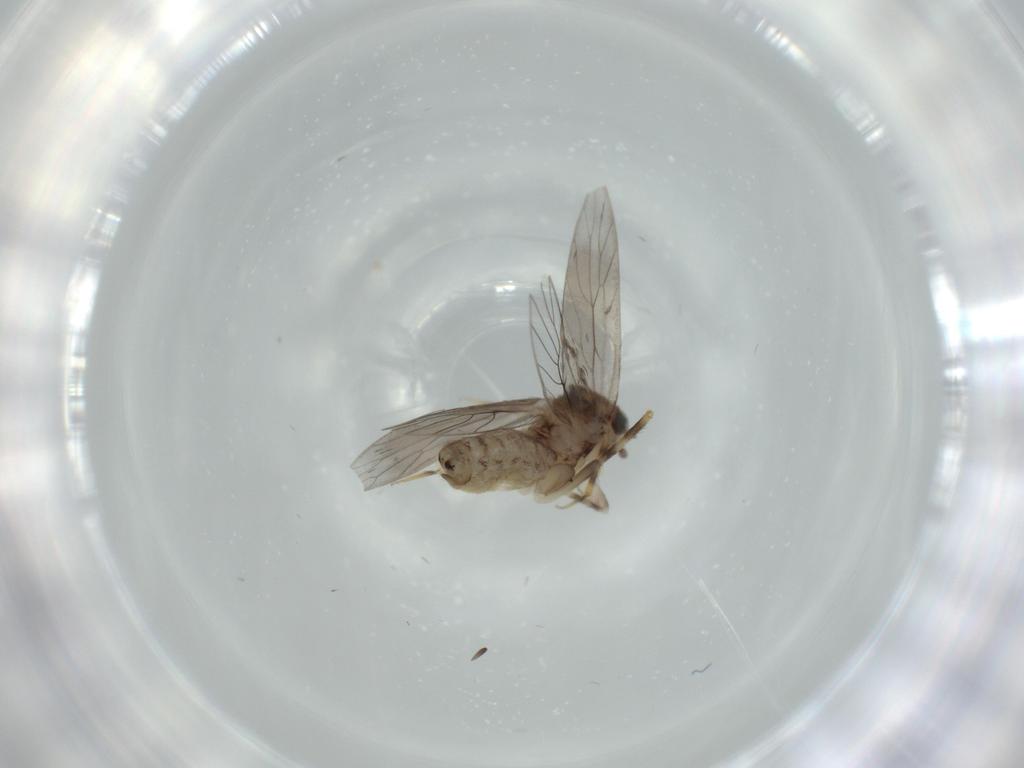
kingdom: Animalia
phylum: Arthropoda
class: Insecta
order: Psocodea
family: Lepidopsocidae
